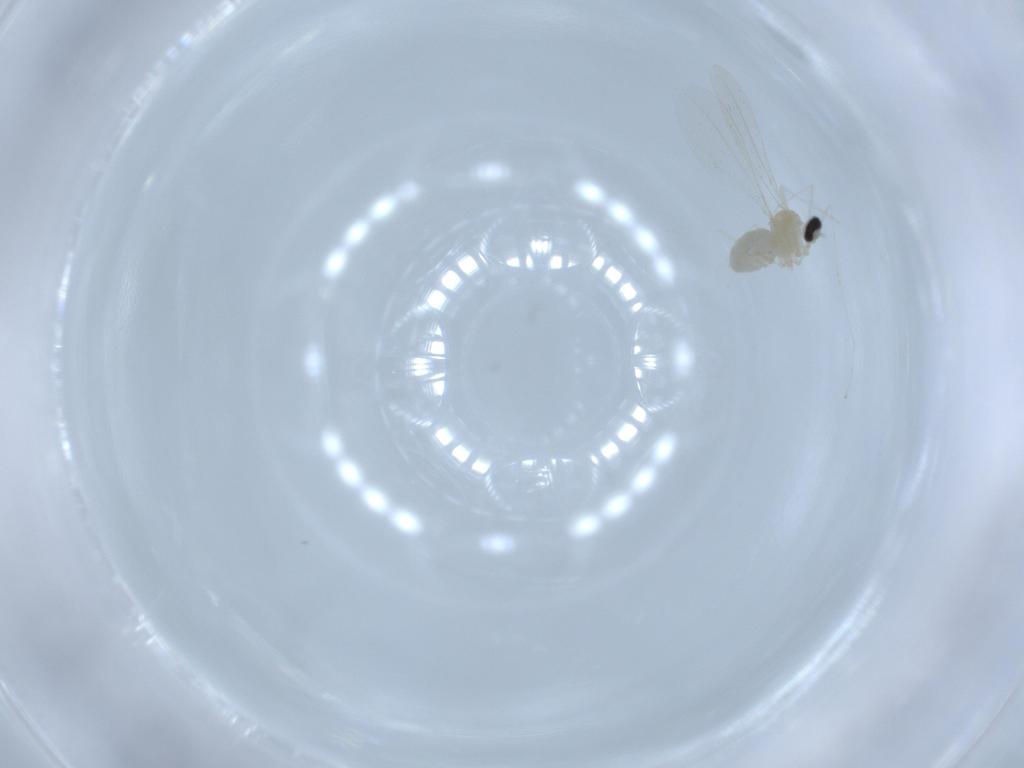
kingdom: Animalia
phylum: Arthropoda
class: Insecta
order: Diptera
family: Cecidomyiidae
